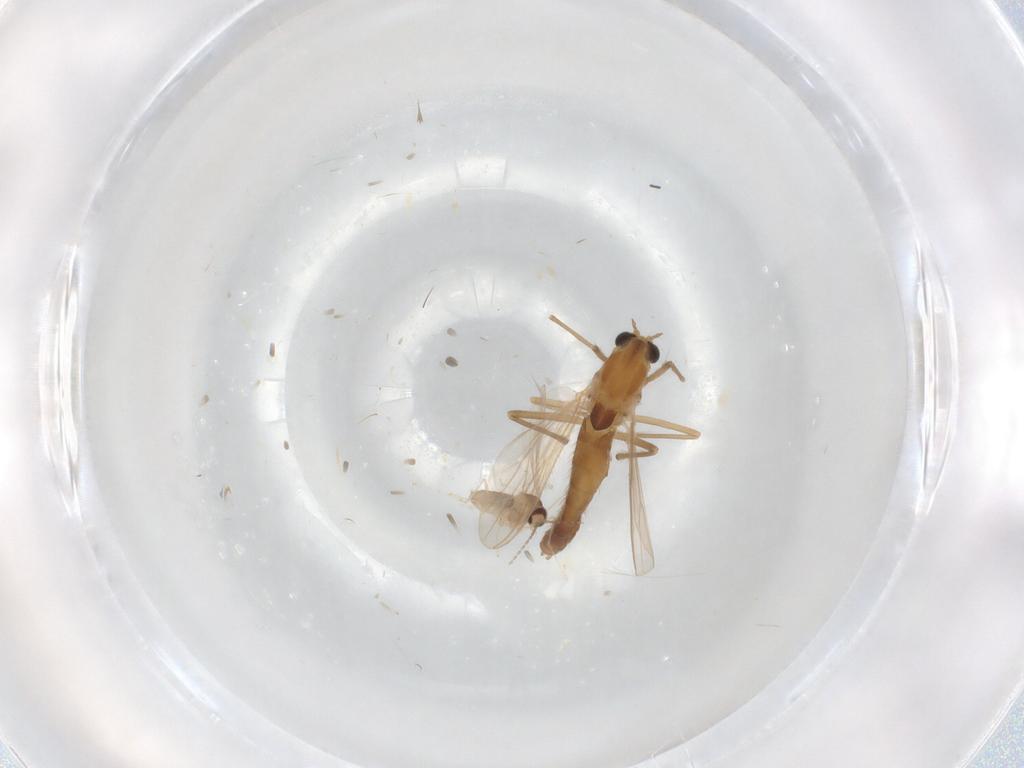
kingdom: Animalia
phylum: Arthropoda
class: Insecta
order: Diptera
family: Chironomidae
